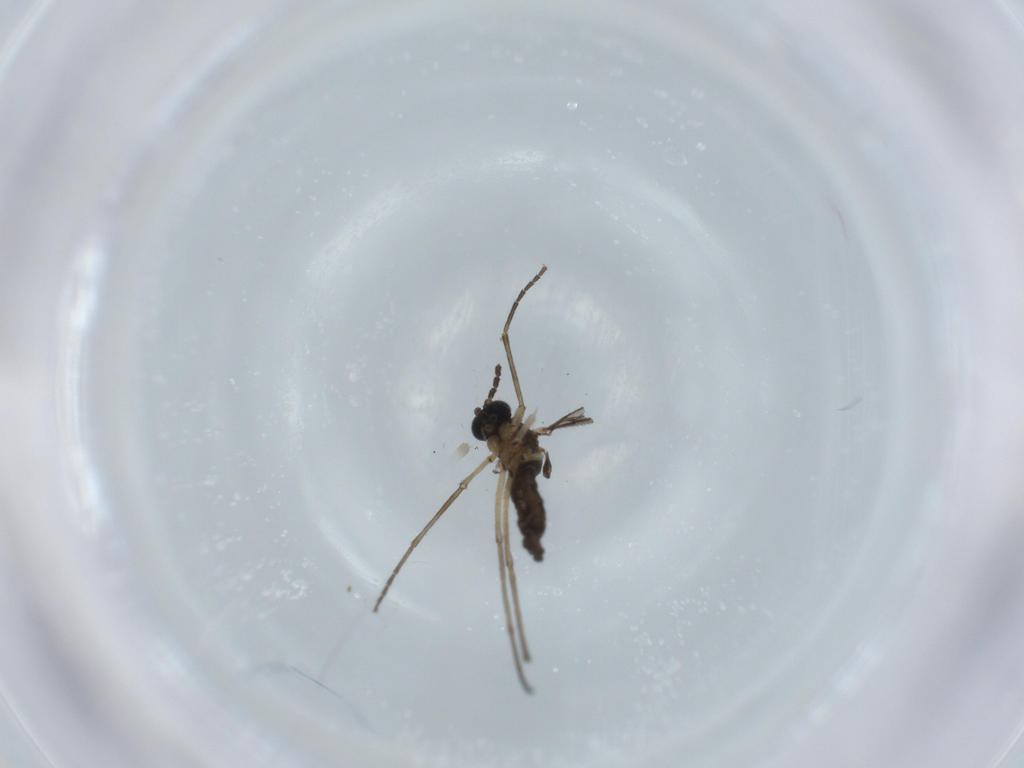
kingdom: Animalia
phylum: Arthropoda
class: Insecta
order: Diptera
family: Sciaridae
